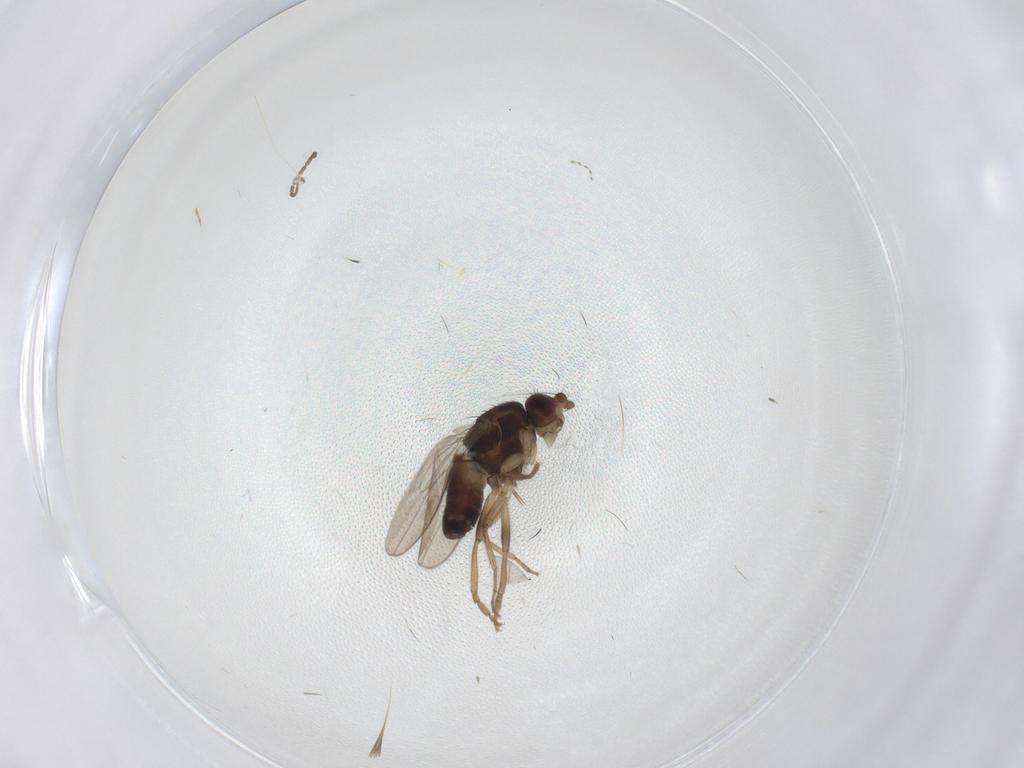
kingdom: Animalia
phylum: Arthropoda
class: Insecta
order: Diptera
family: Sphaeroceridae
